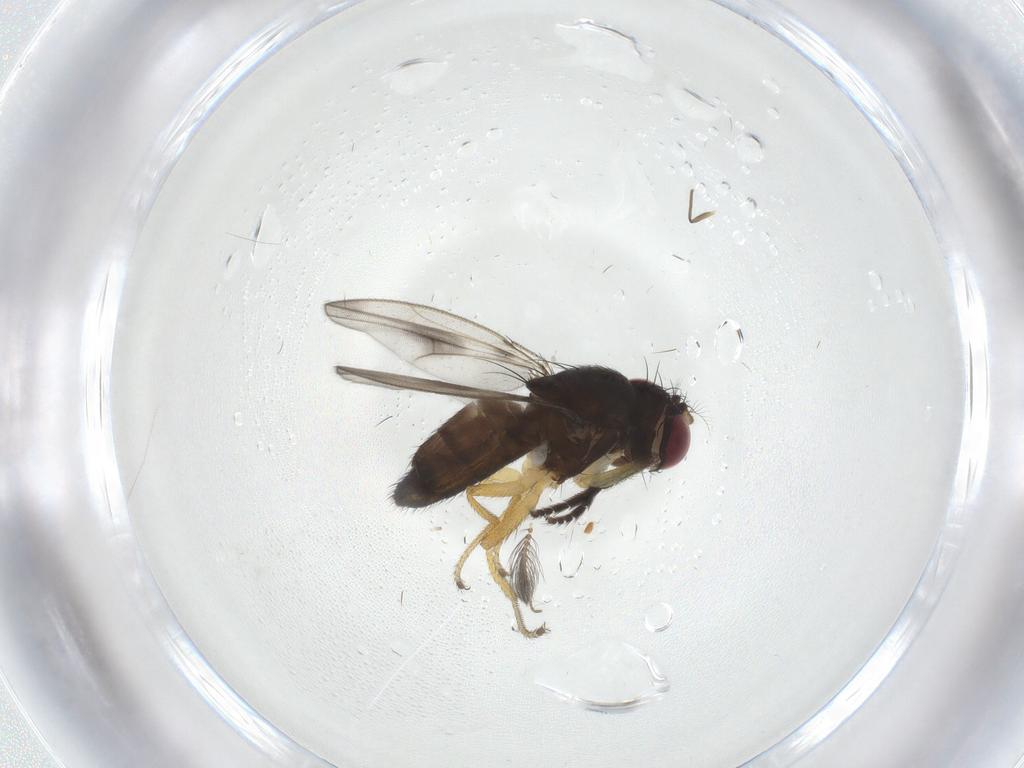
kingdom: Animalia
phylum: Arthropoda
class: Insecta
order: Diptera
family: Ephydridae
